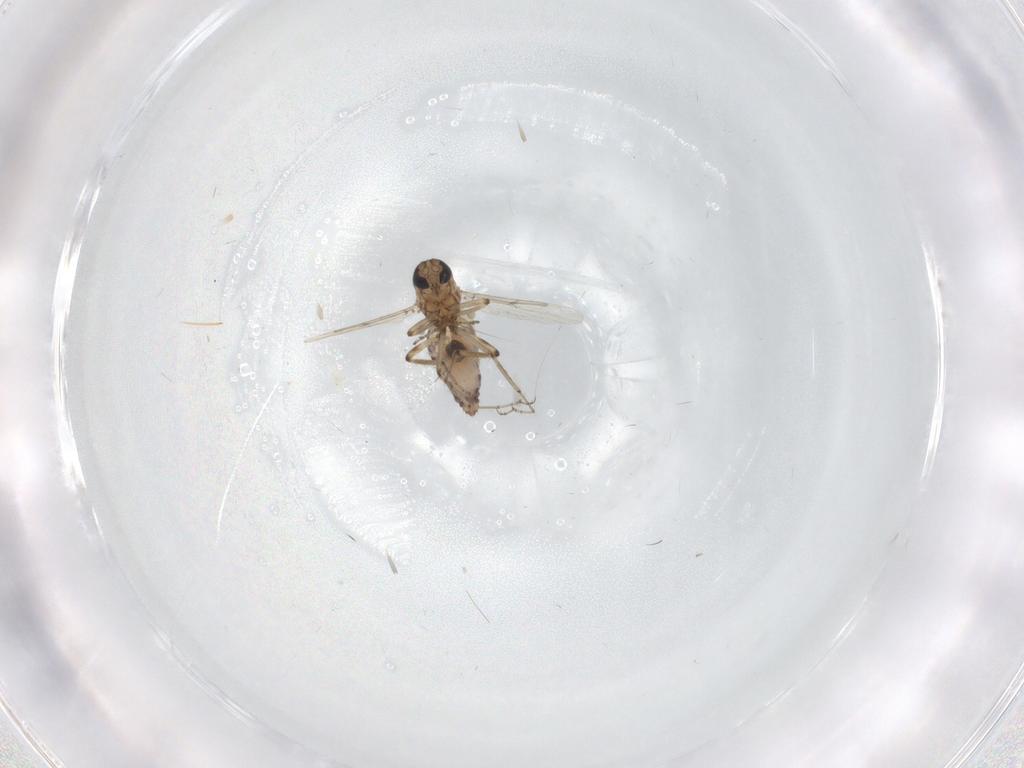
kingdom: Animalia
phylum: Arthropoda
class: Insecta
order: Diptera
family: Ceratopogonidae
